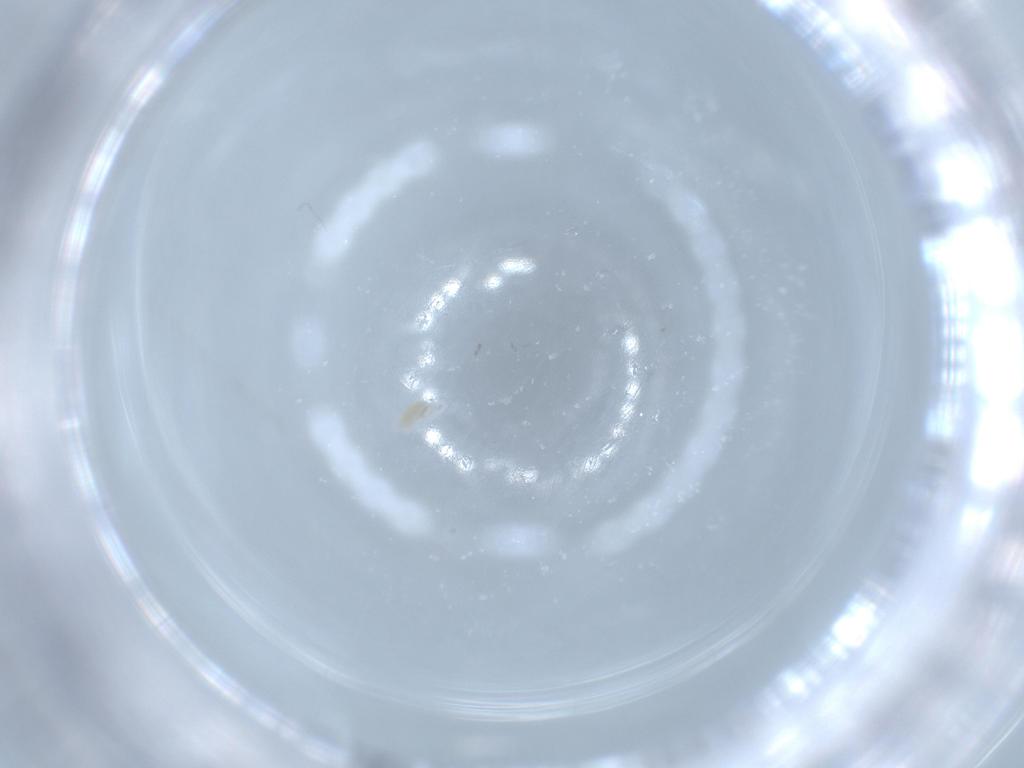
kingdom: Animalia
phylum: Arthropoda
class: Arachnida
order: Trombidiformes
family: Eupodidae
